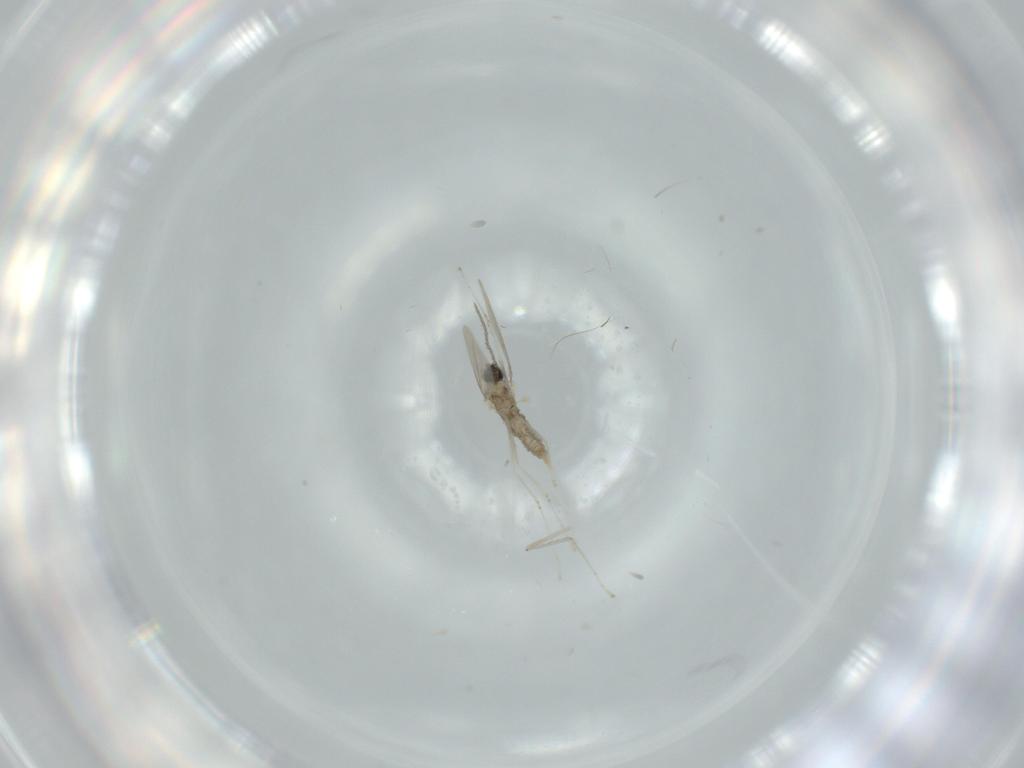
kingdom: Animalia
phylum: Arthropoda
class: Insecta
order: Diptera
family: Cecidomyiidae
